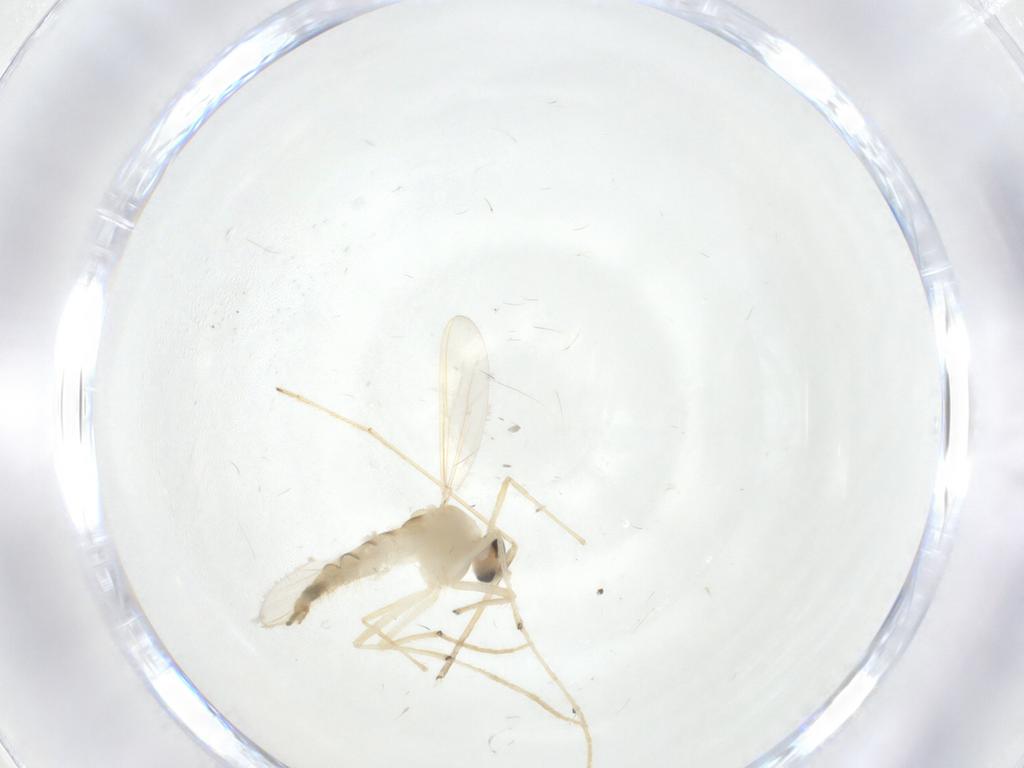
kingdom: Animalia
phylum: Arthropoda
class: Insecta
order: Diptera
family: Chironomidae
